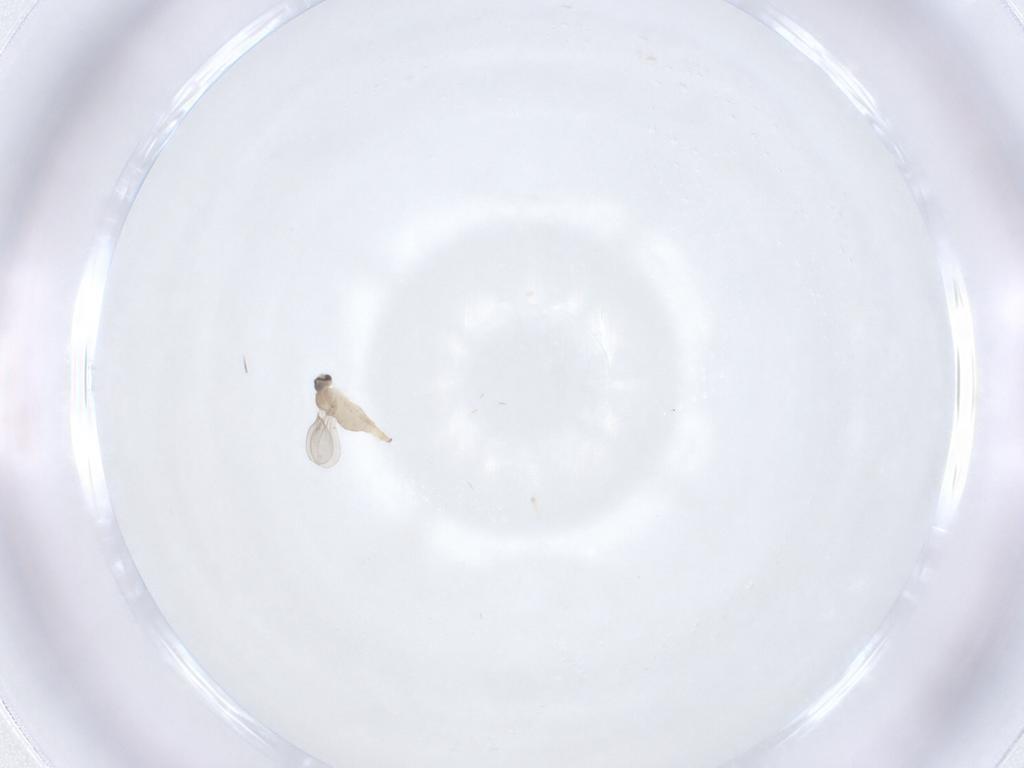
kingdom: Animalia
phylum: Arthropoda
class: Insecta
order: Diptera
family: Cecidomyiidae
